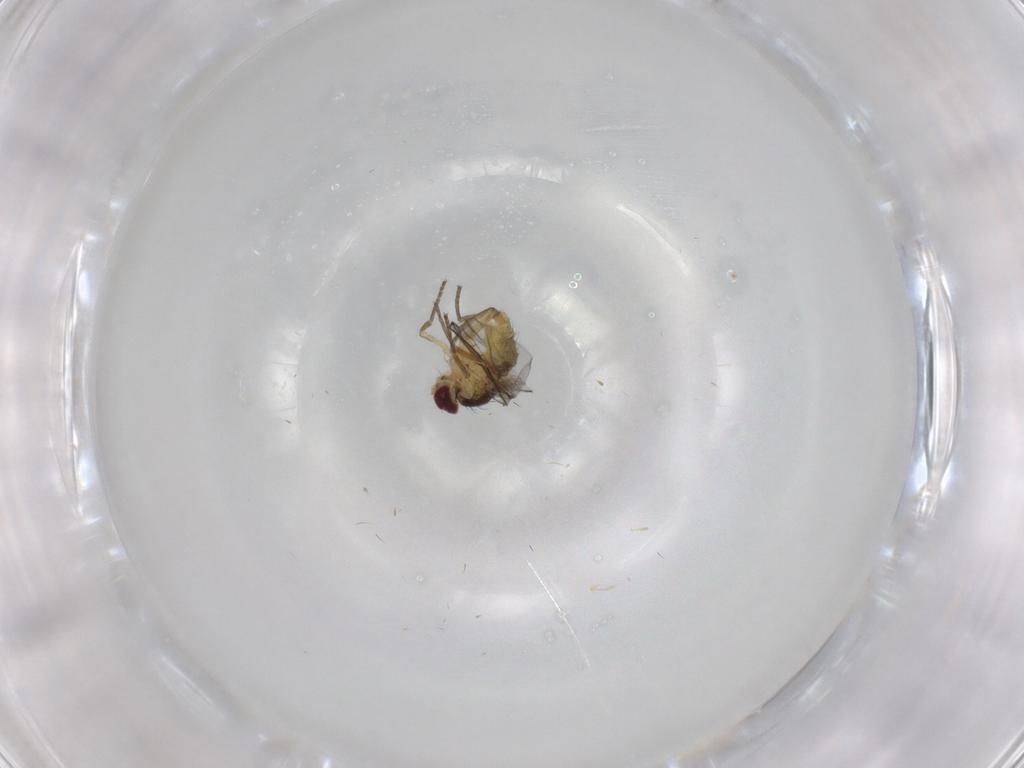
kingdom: Animalia
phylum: Arthropoda
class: Insecta
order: Diptera
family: Agromyzidae
